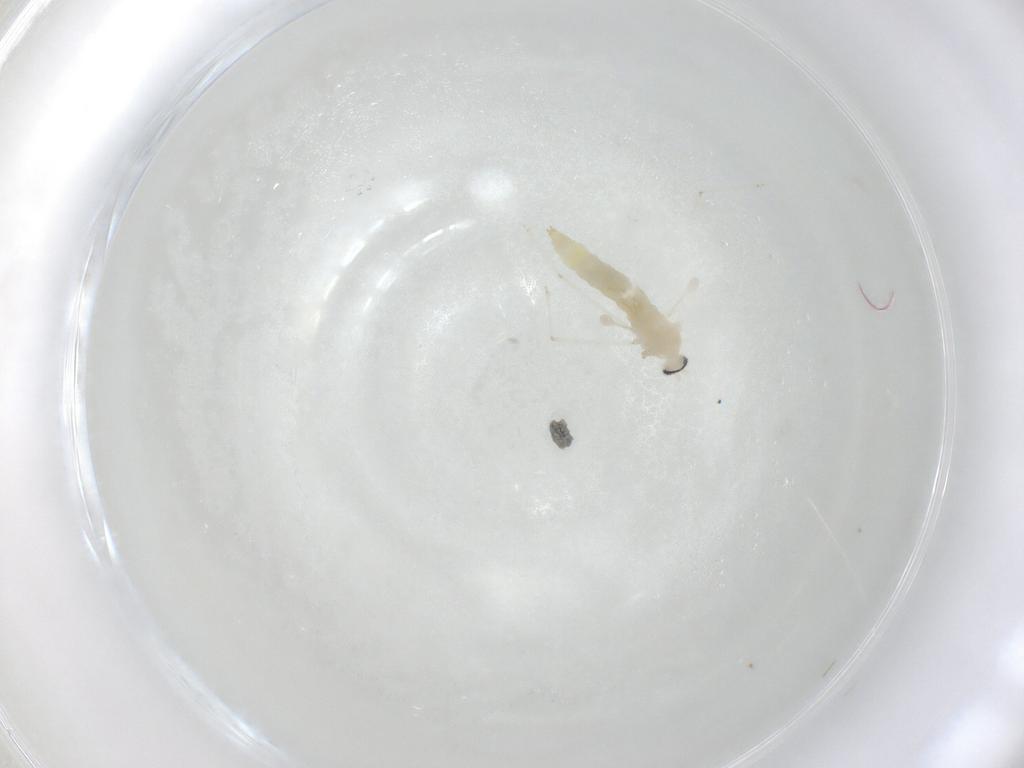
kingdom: Animalia
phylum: Arthropoda
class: Insecta
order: Diptera
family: Cecidomyiidae
